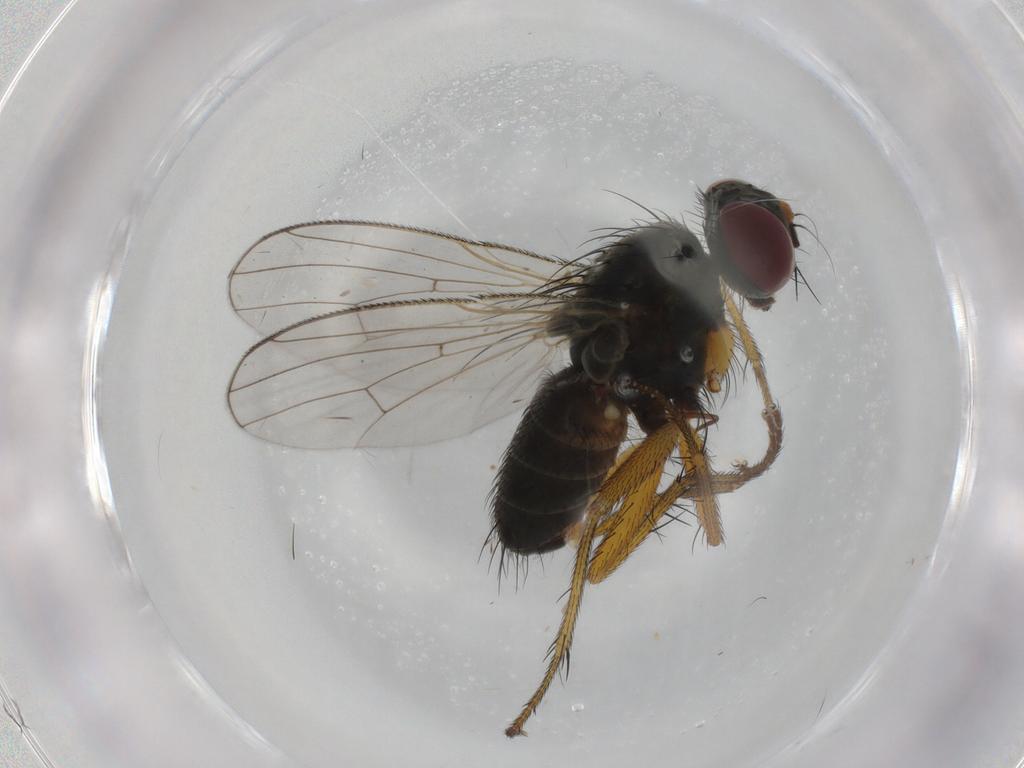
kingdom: Animalia
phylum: Arthropoda
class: Insecta
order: Diptera
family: Muscidae
